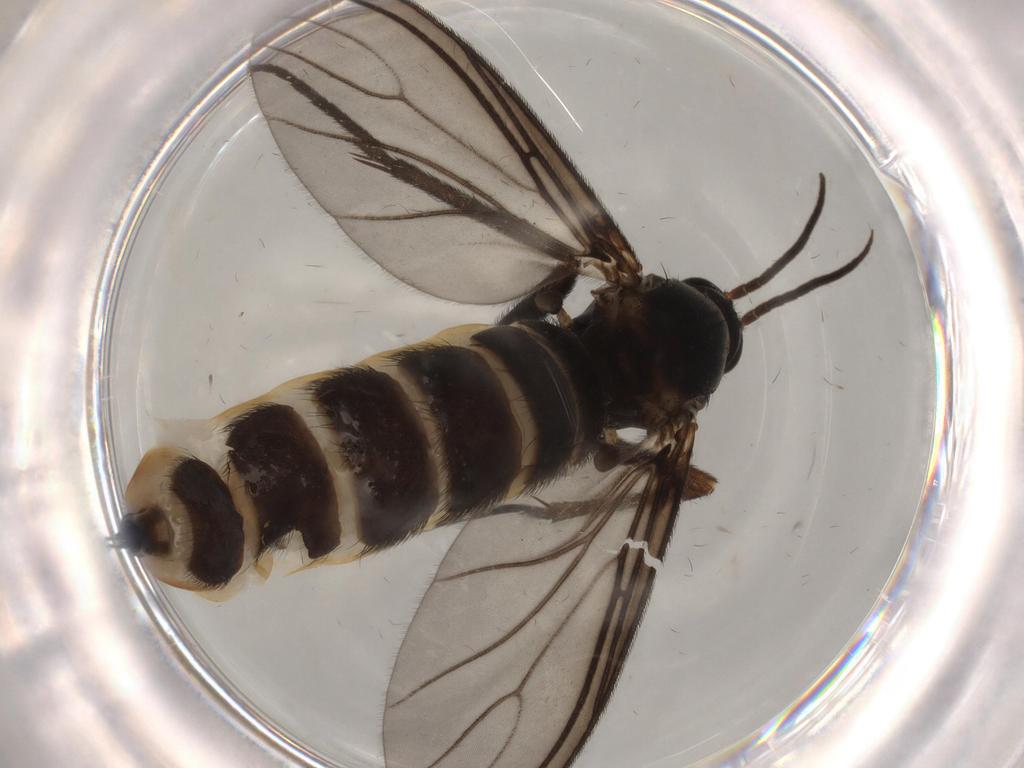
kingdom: Animalia
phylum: Arthropoda
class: Insecta
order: Diptera
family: Sciaridae
